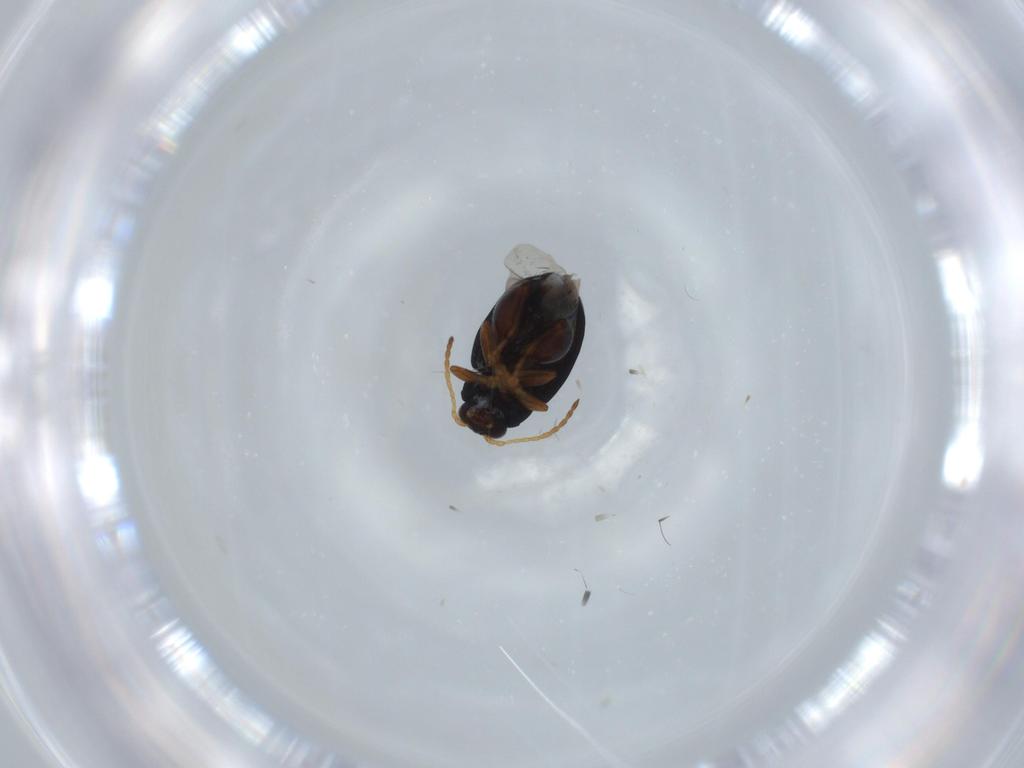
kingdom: Animalia
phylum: Arthropoda
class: Insecta
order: Coleoptera
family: Chrysomelidae
